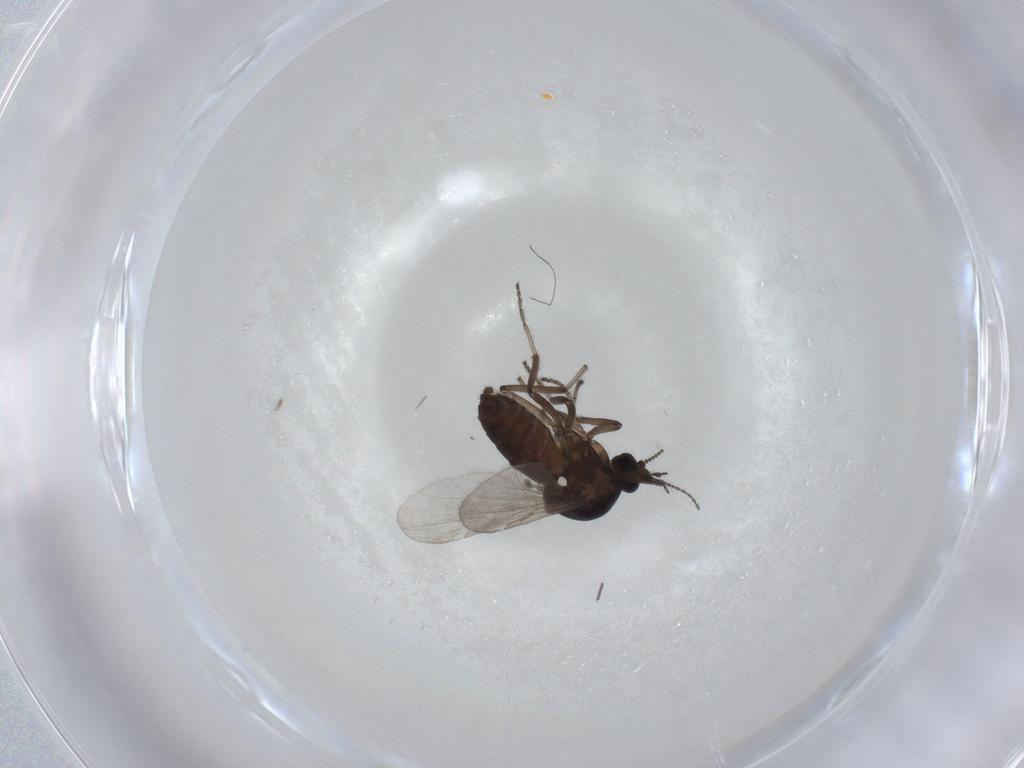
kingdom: Animalia
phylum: Arthropoda
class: Insecta
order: Diptera
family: Ceratopogonidae
